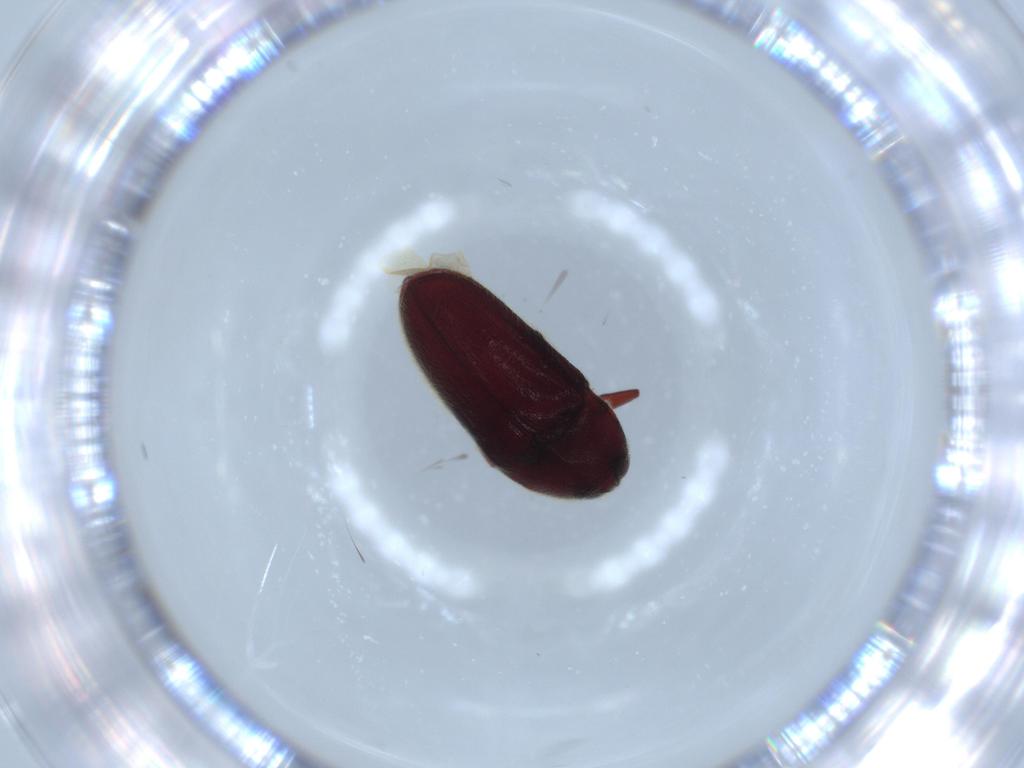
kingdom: Animalia
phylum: Arthropoda
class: Insecta
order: Coleoptera
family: Throscidae
